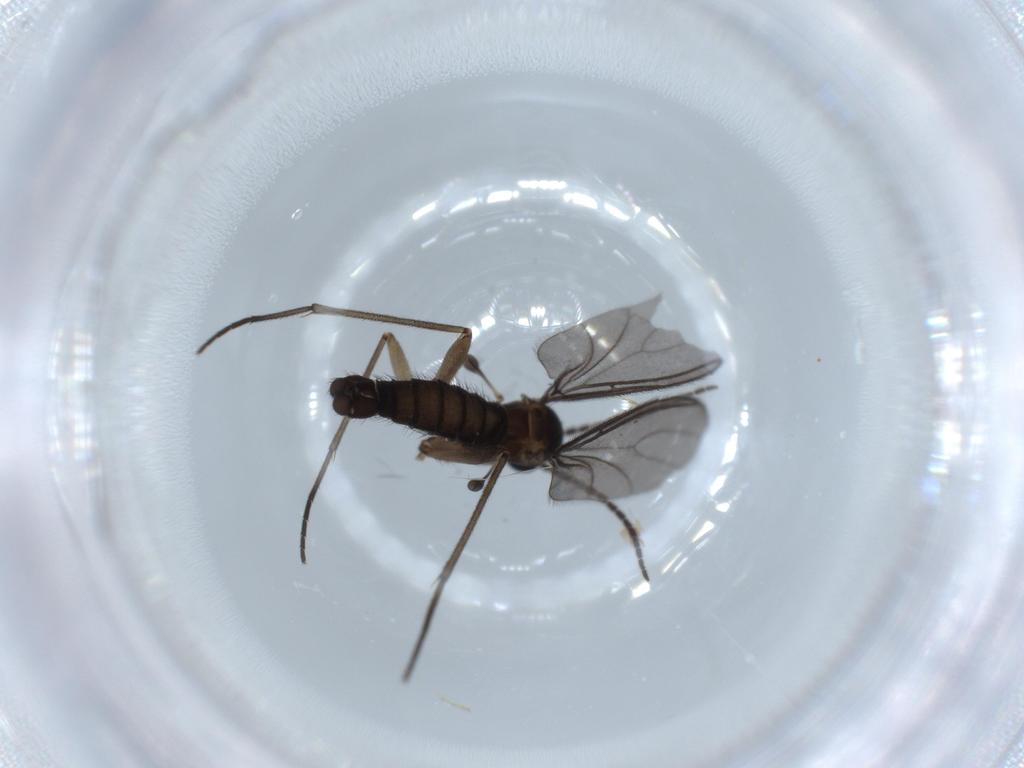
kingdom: Animalia
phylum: Arthropoda
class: Insecta
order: Diptera
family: Sciaridae
